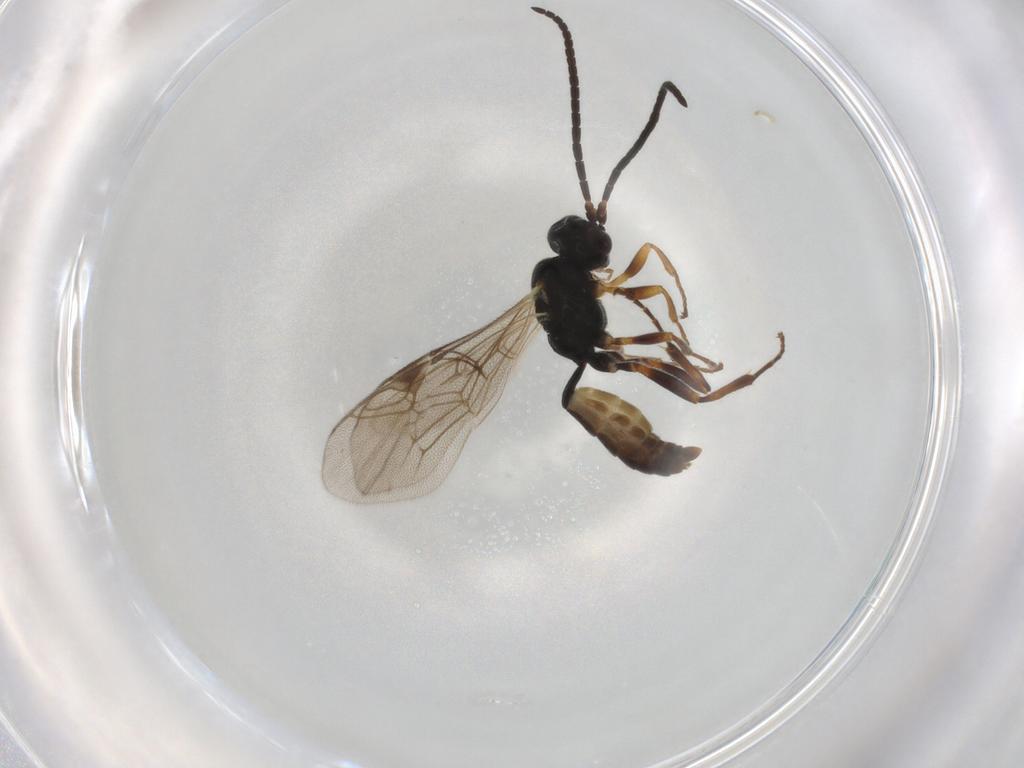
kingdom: Animalia
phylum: Arthropoda
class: Insecta
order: Hymenoptera
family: Ichneumonidae
